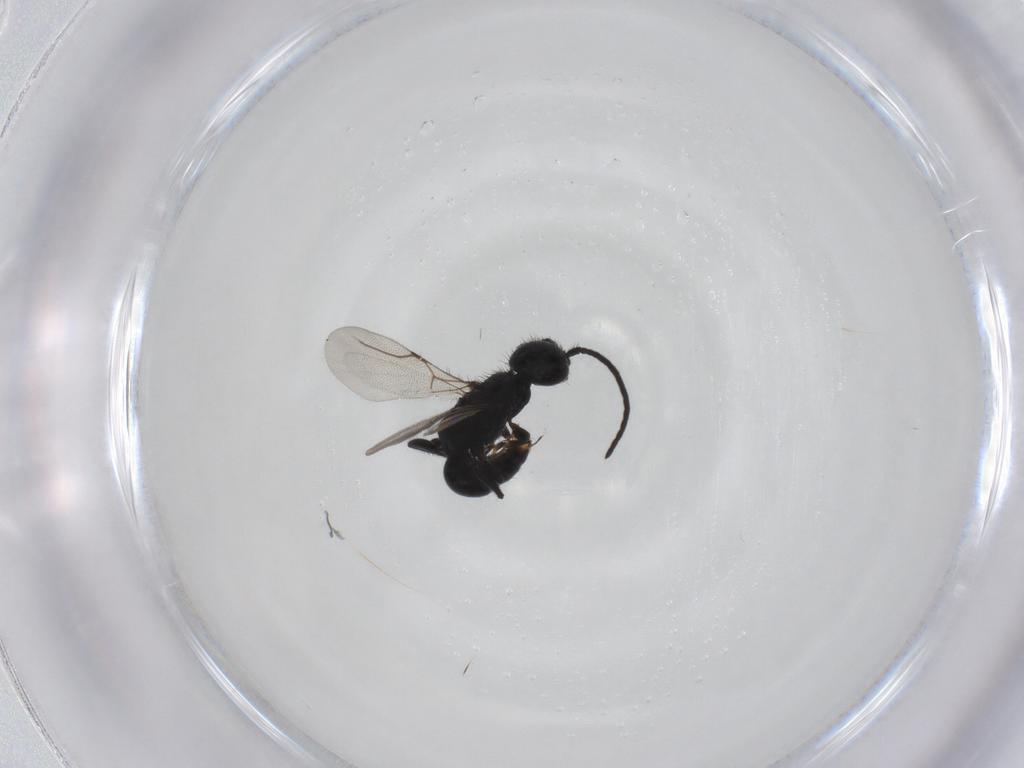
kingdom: Animalia
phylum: Arthropoda
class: Insecta
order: Hymenoptera
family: Bethylidae
